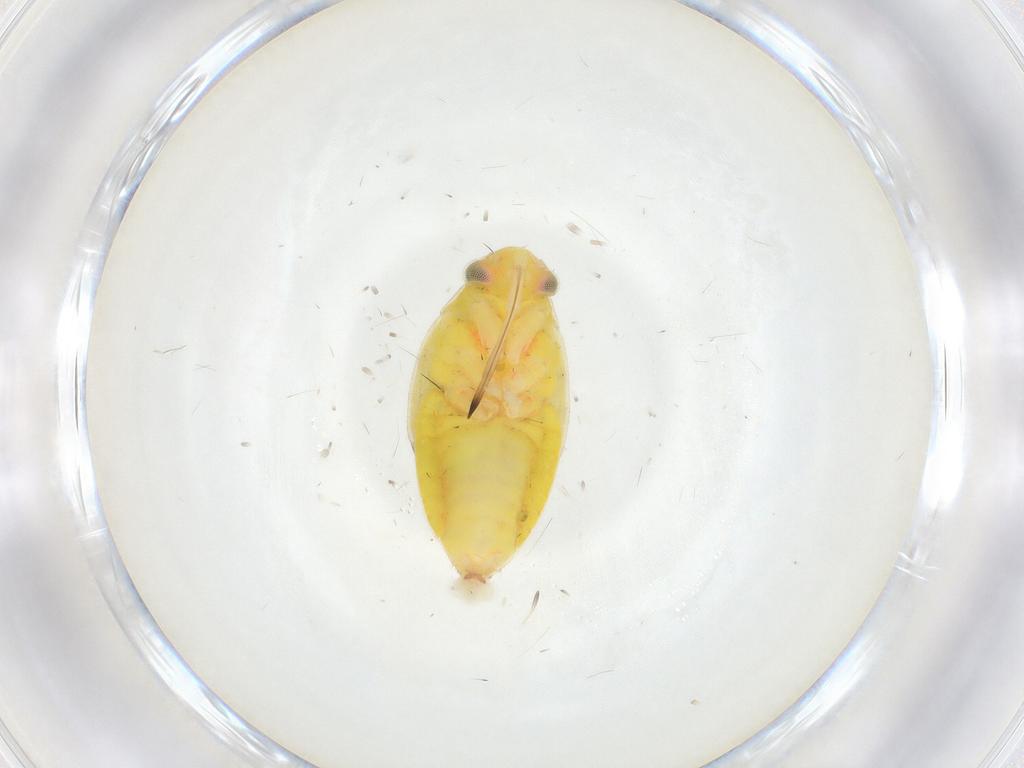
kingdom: Animalia
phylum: Arthropoda
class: Insecta
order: Hemiptera
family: Miridae
